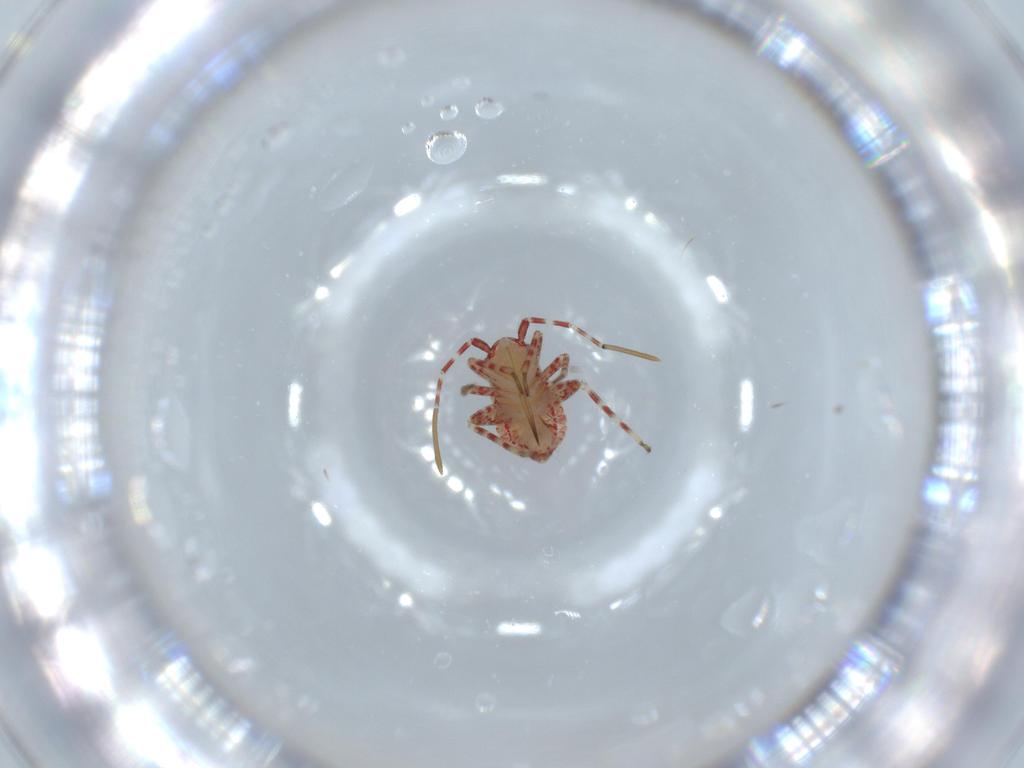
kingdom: Animalia
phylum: Arthropoda
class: Insecta
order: Hemiptera
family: Miridae
